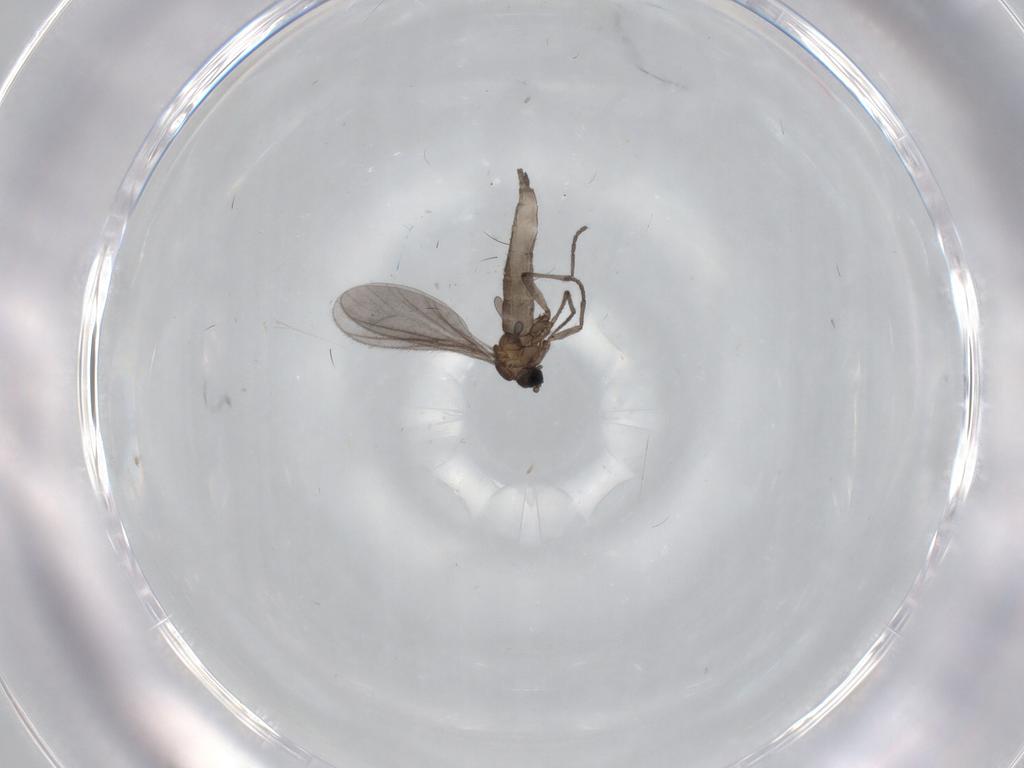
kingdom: Animalia
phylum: Arthropoda
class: Insecta
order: Diptera
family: Sciaridae
